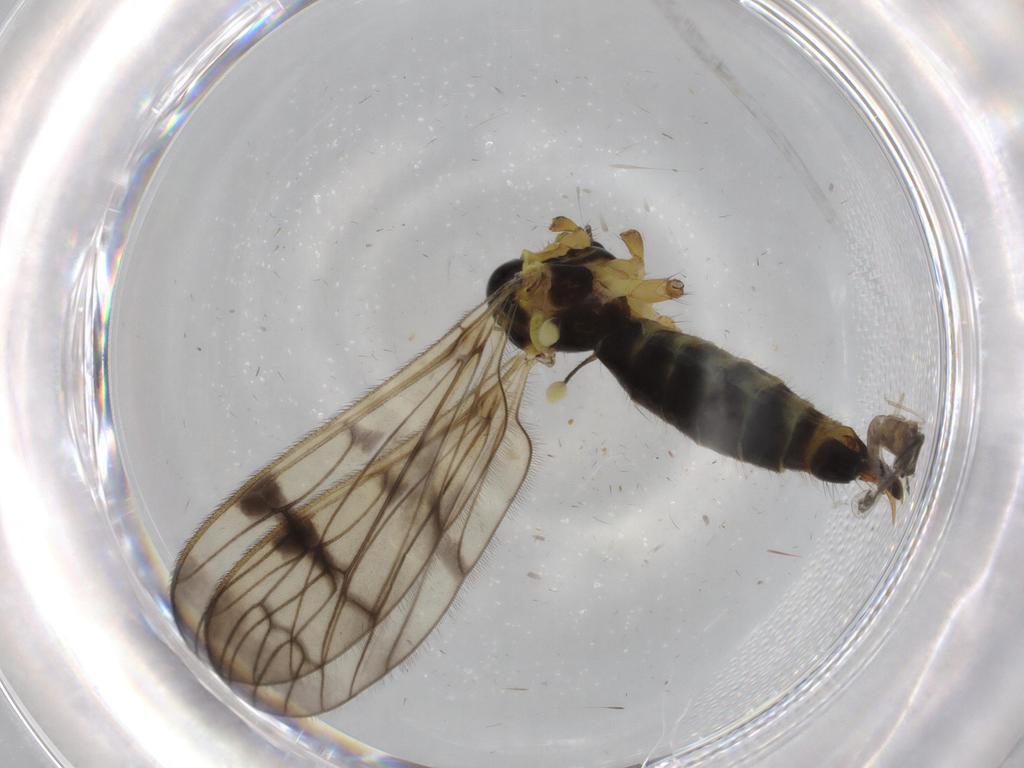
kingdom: Animalia
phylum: Arthropoda
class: Insecta
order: Diptera
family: Limoniidae
